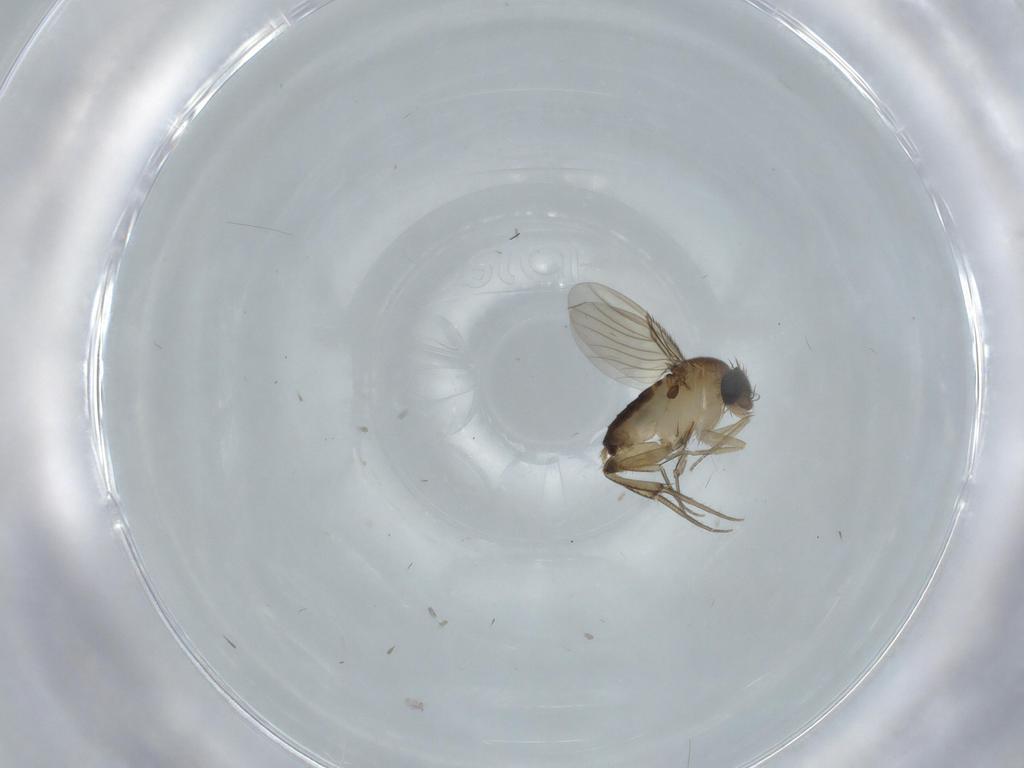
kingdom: Animalia
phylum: Arthropoda
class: Insecta
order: Diptera
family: Phoridae
